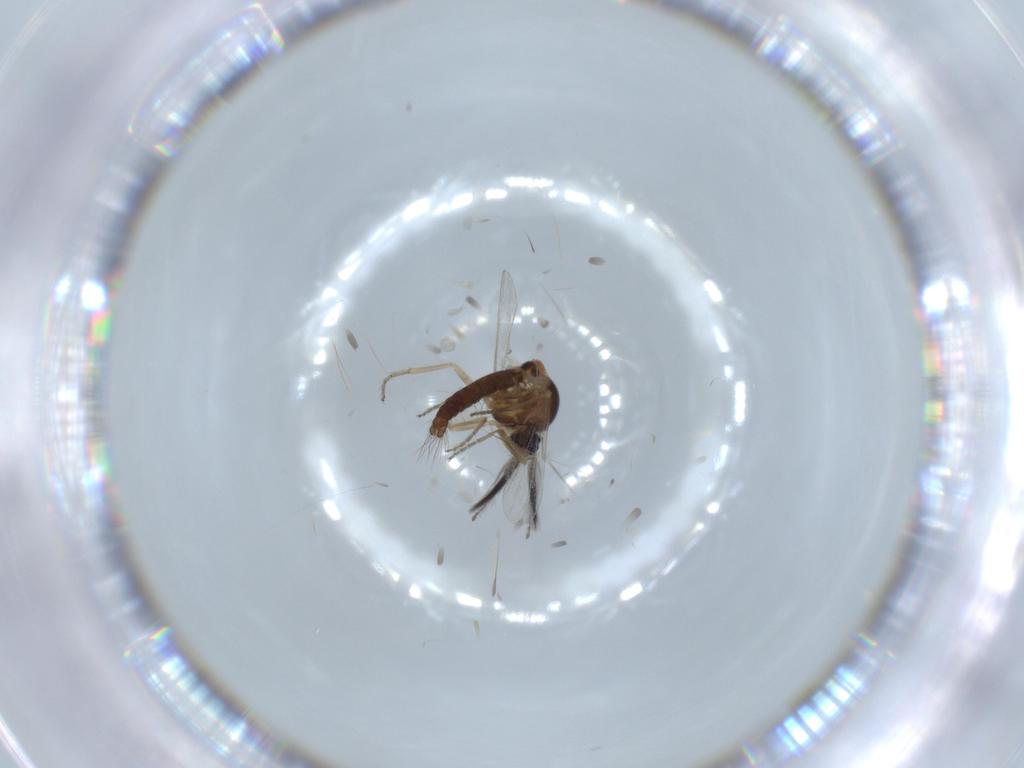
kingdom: Animalia
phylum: Arthropoda
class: Insecta
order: Diptera
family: Ceratopogonidae
